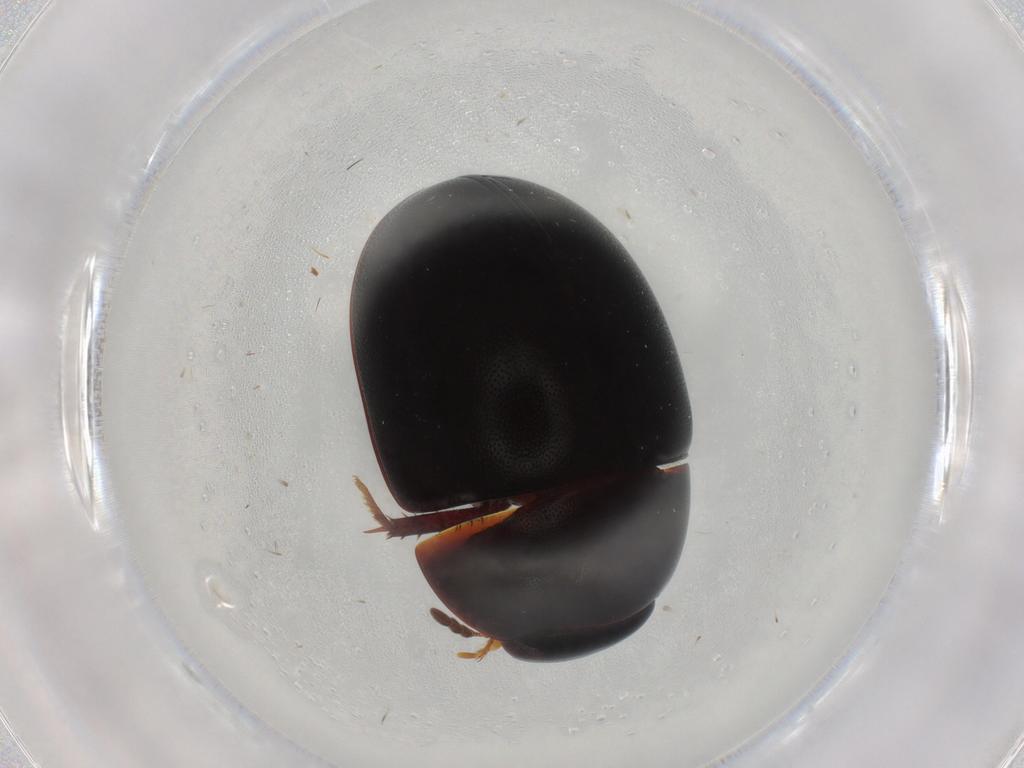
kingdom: Animalia
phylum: Arthropoda
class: Insecta
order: Coleoptera
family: Hydrophilidae
